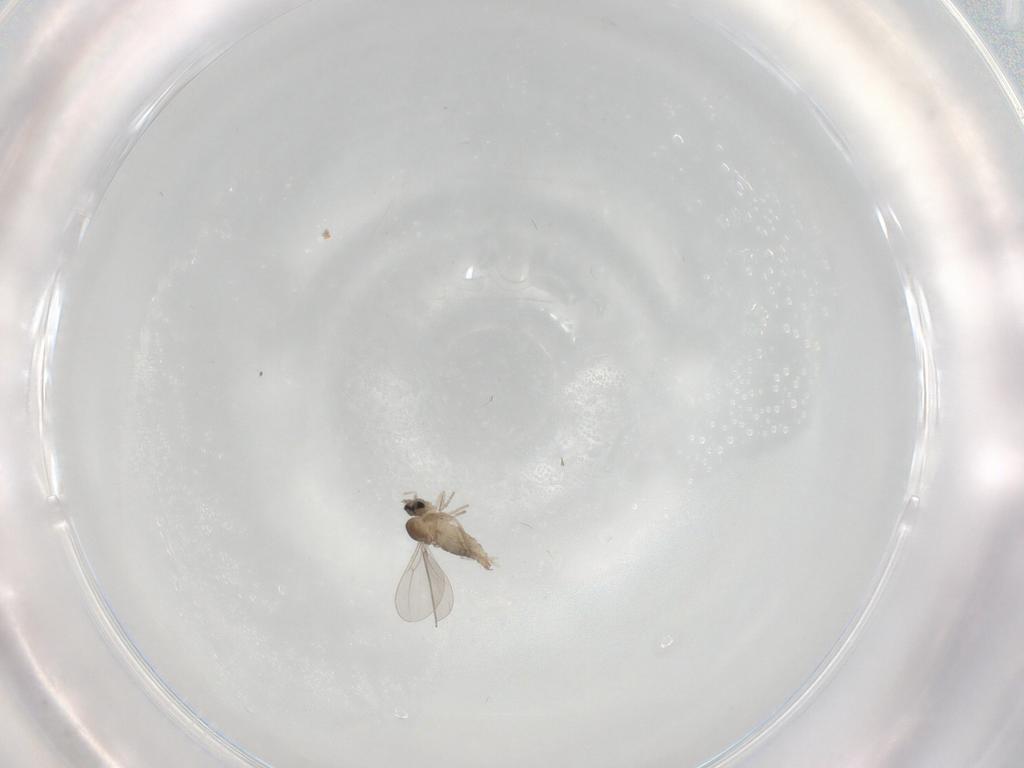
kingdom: Animalia
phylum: Arthropoda
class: Insecta
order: Diptera
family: Cecidomyiidae
